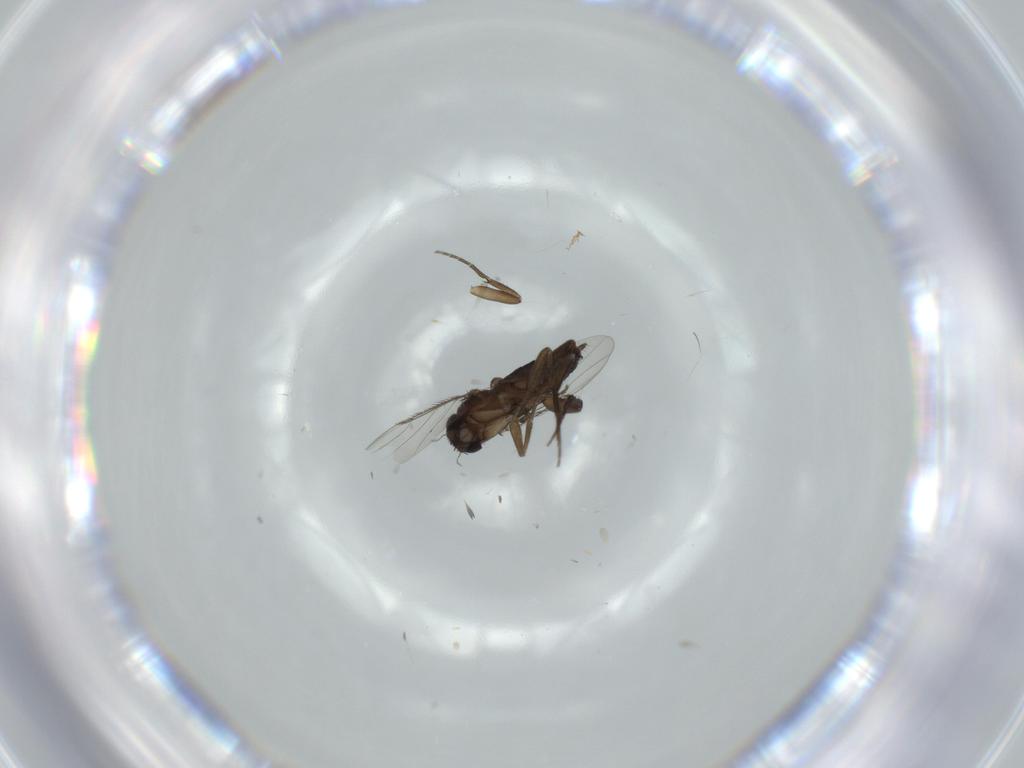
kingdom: Animalia
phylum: Arthropoda
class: Insecta
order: Diptera
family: Phoridae
